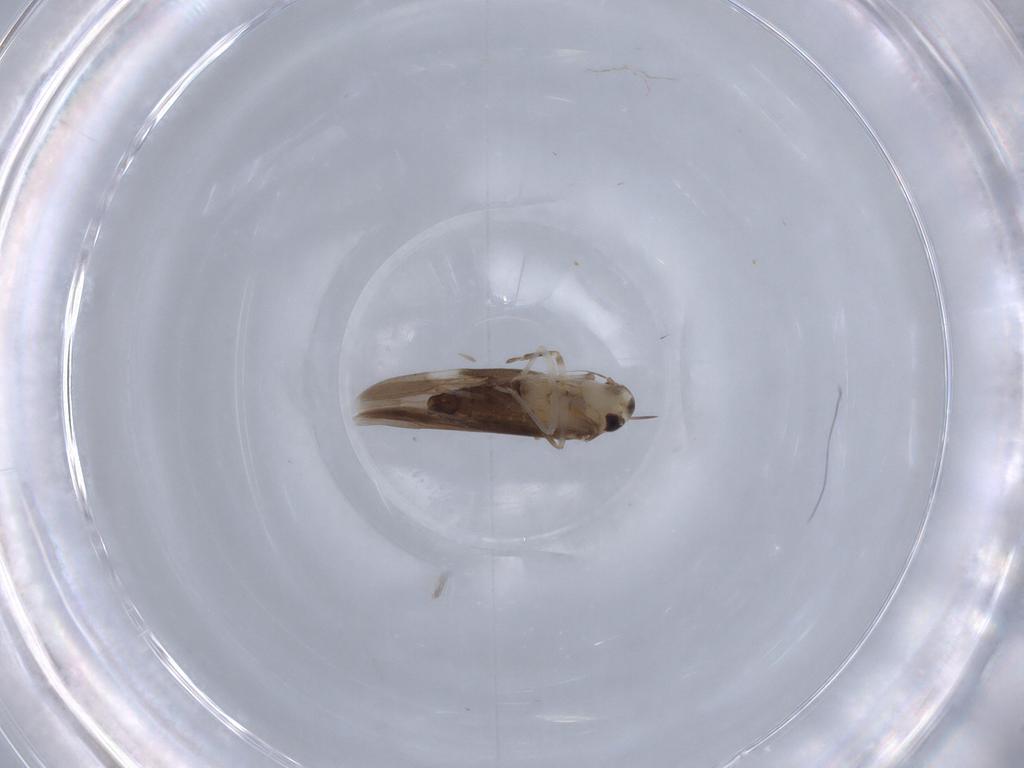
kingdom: Animalia
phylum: Arthropoda
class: Insecta
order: Hemiptera
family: Cicadellidae
